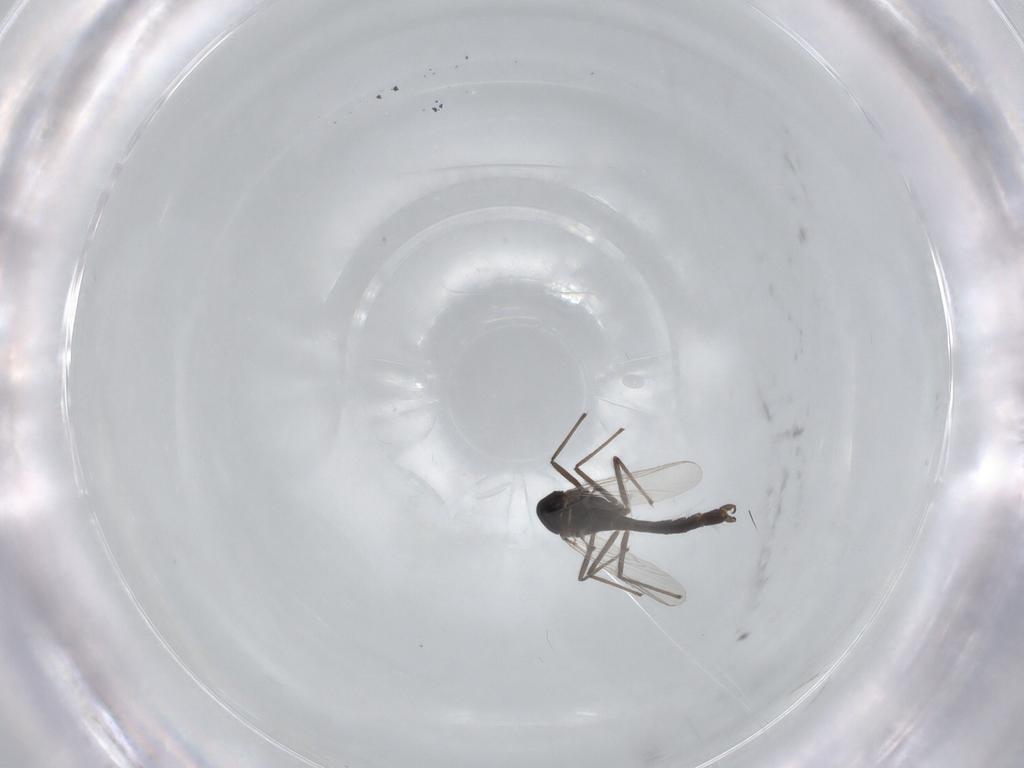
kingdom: Animalia
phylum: Arthropoda
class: Insecta
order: Diptera
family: Chironomidae
